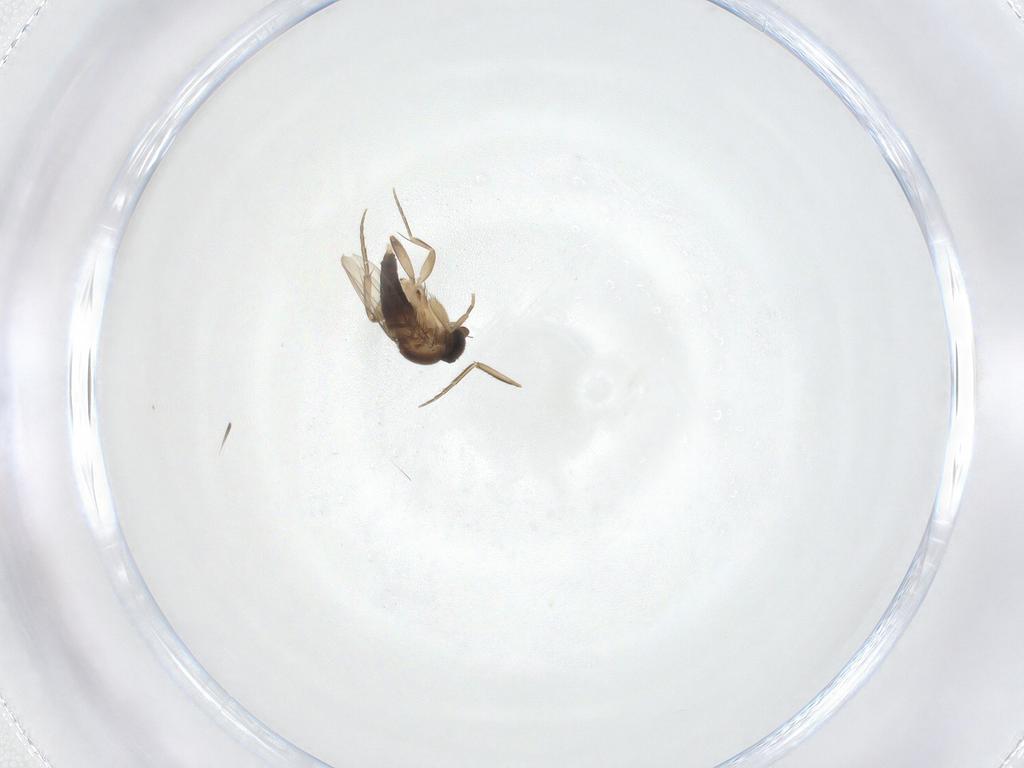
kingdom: Animalia
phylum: Arthropoda
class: Insecta
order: Diptera
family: Phoridae
